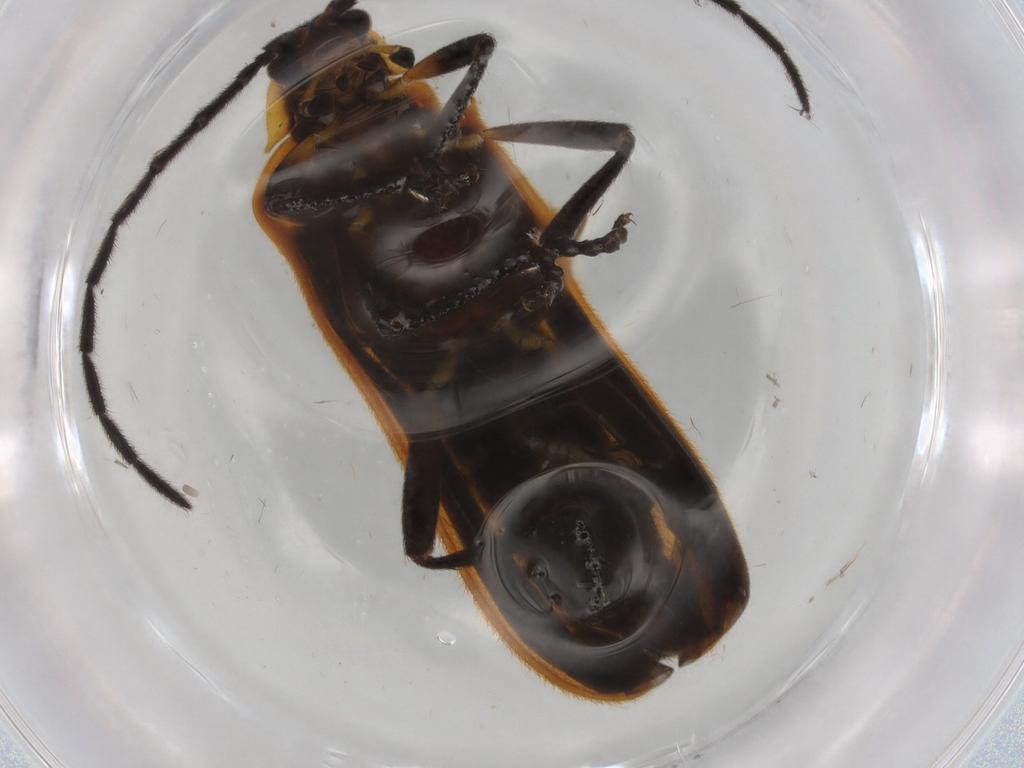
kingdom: Animalia
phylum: Arthropoda
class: Insecta
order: Coleoptera
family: Lycidae
